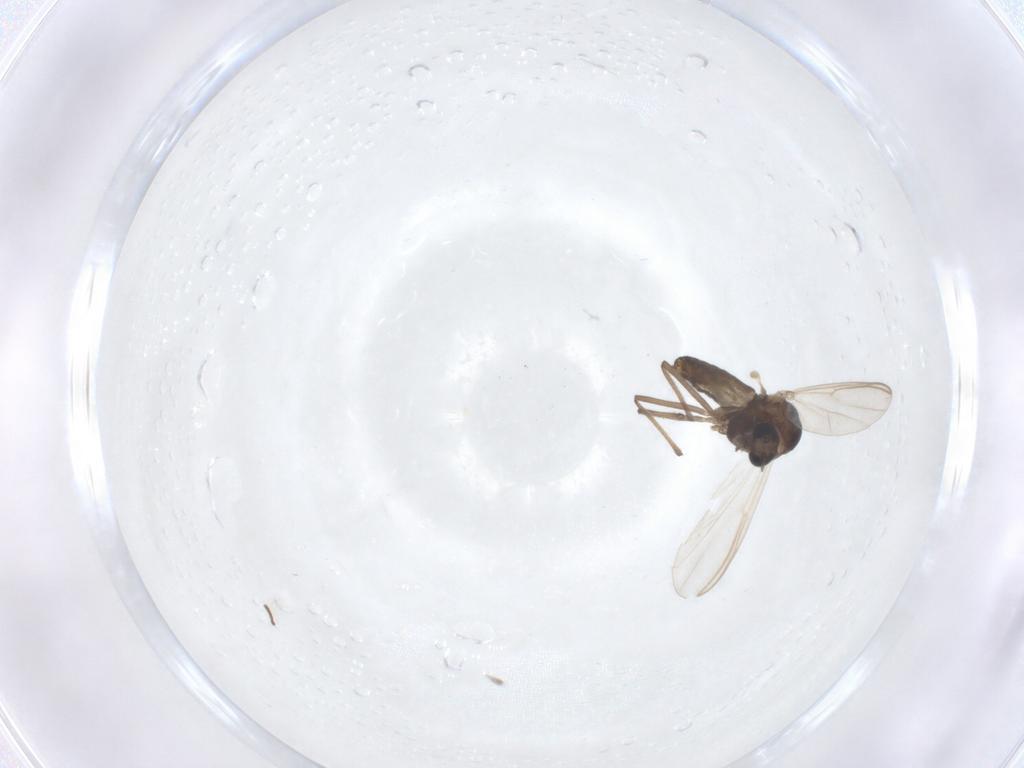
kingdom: Animalia
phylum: Arthropoda
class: Insecta
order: Diptera
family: Chironomidae
